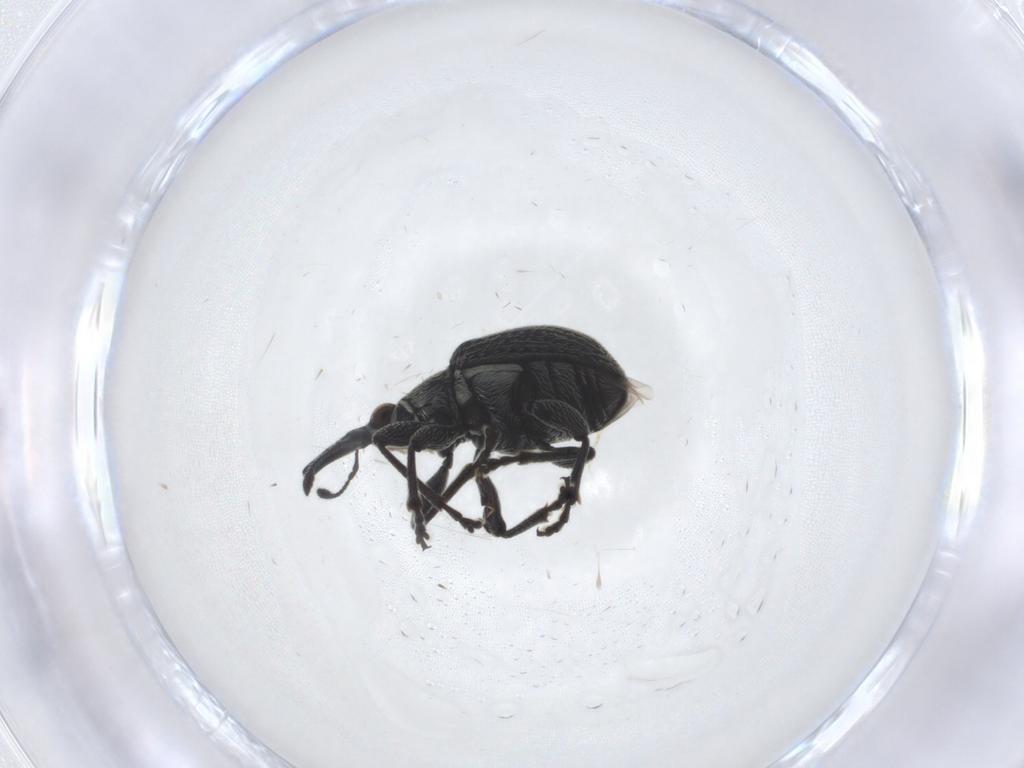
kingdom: Animalia
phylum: Arthropoda
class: Insecta
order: Coleoptera
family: Brentidae
